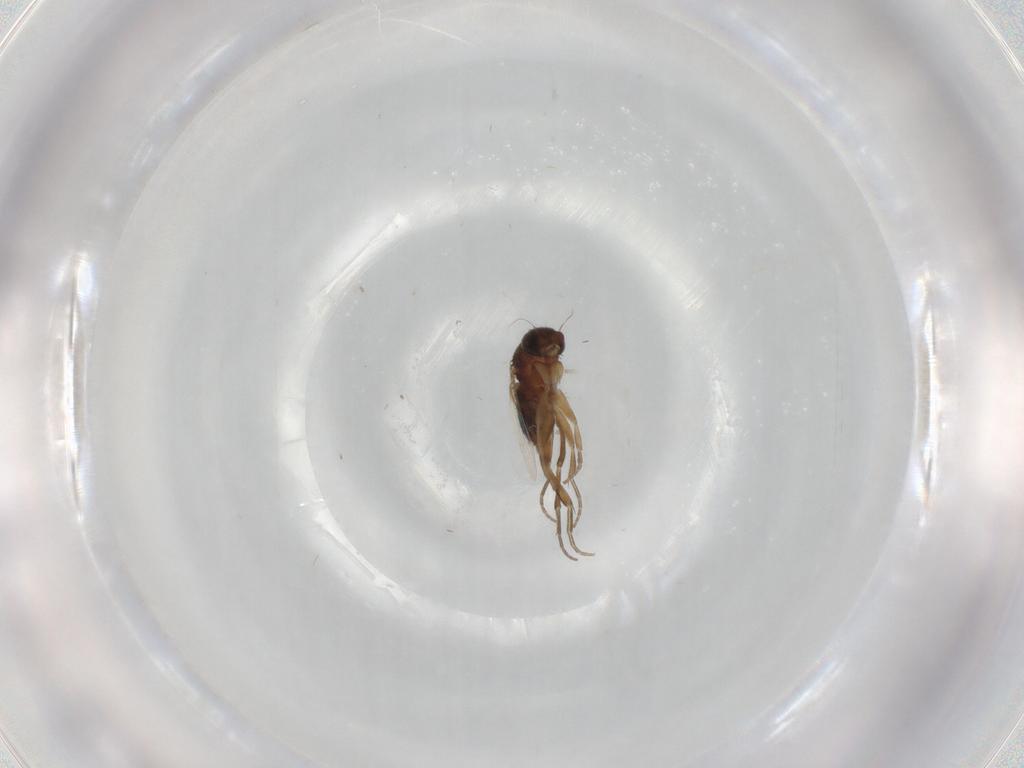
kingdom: Animalia
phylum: Arthropoda
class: Insecta
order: Diptera
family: Phoridae
